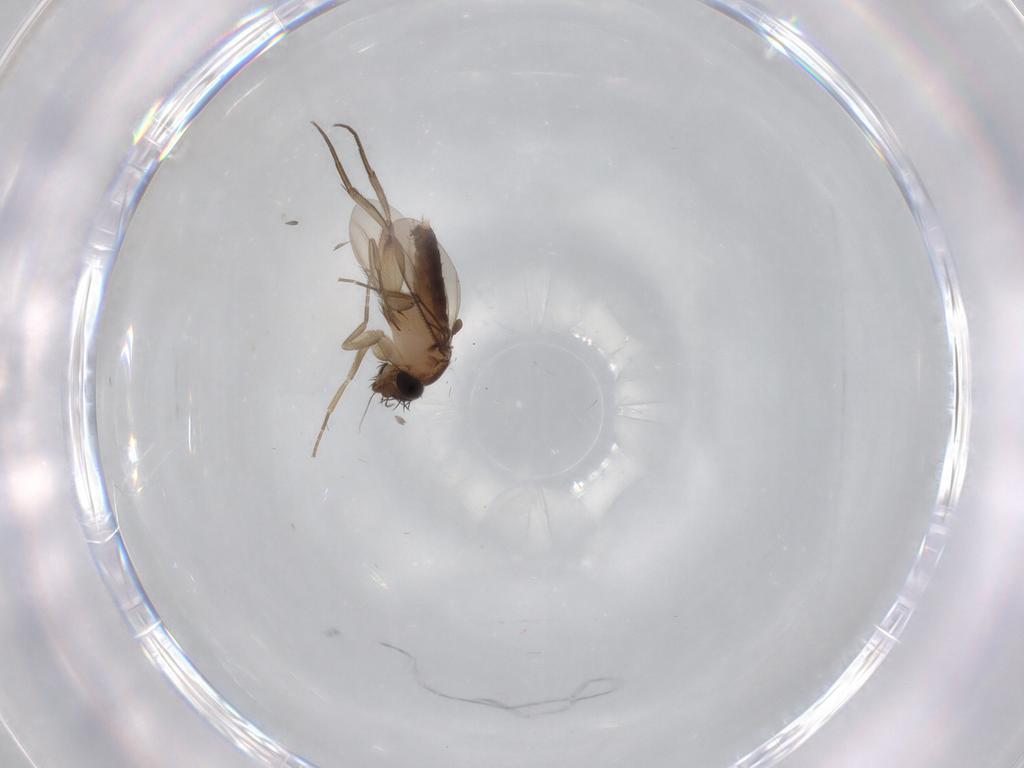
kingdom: Animalia
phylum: Arthropoda
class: Insecta
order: Diptera
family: Phoridae
